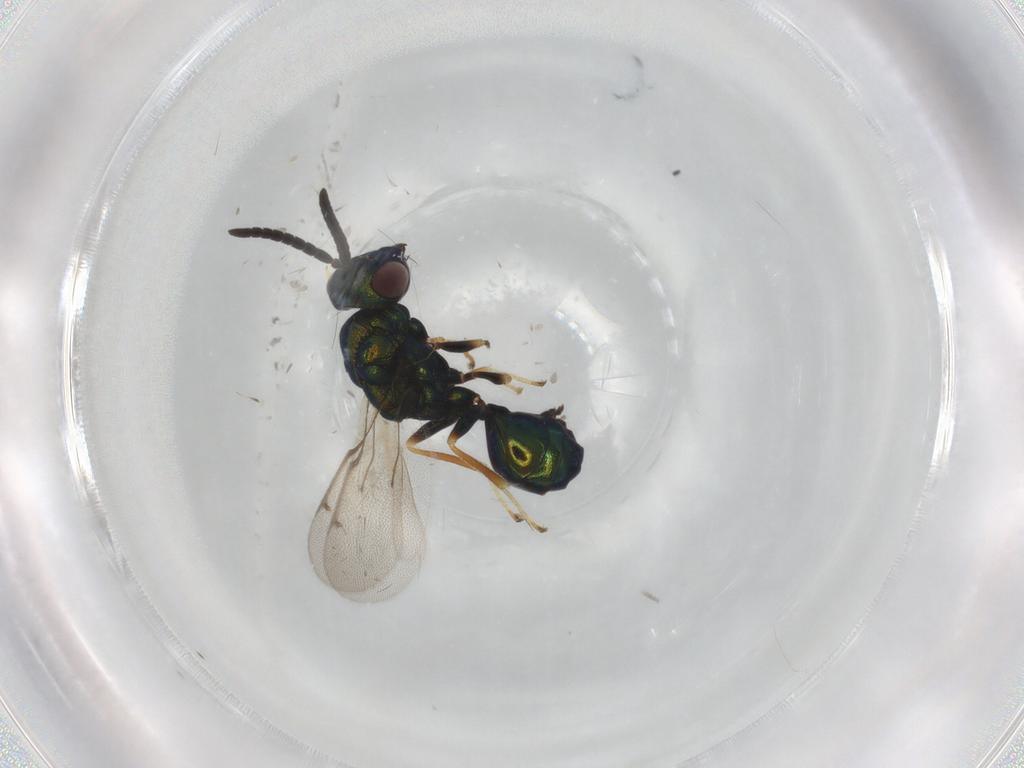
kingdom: Animalia
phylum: Arthropoda
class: Insecta
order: Hymenoptera
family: Eucharitidae
